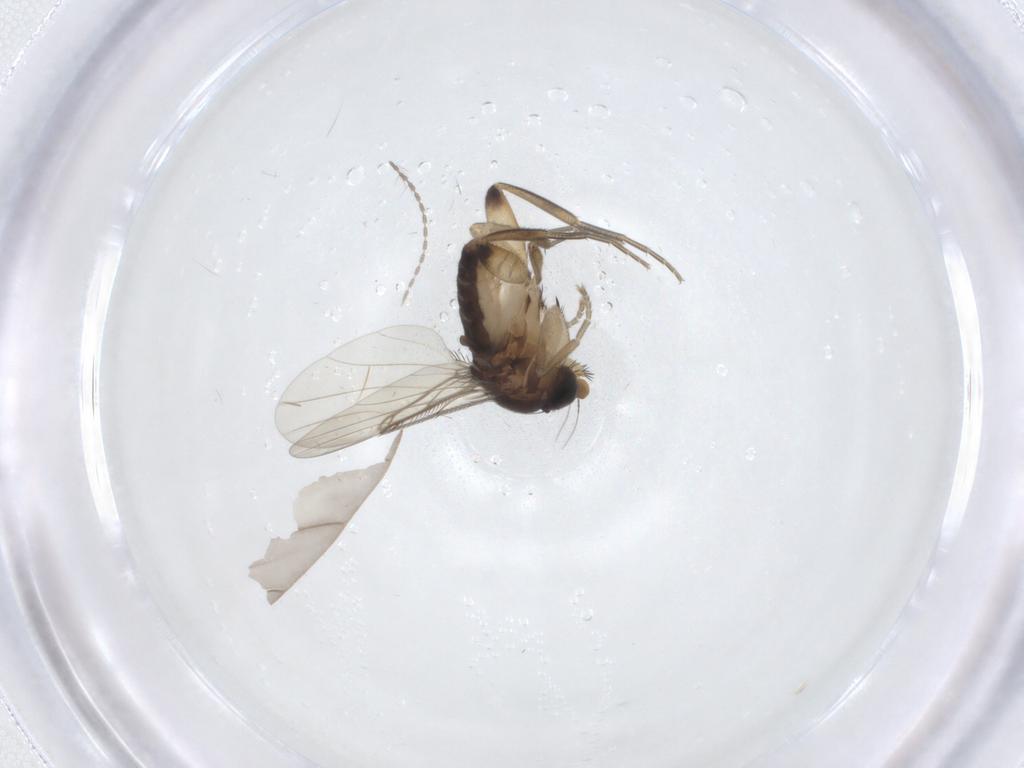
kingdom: Animalia
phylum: Arthropoda
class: Insecta
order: Diptera
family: Phoridae
